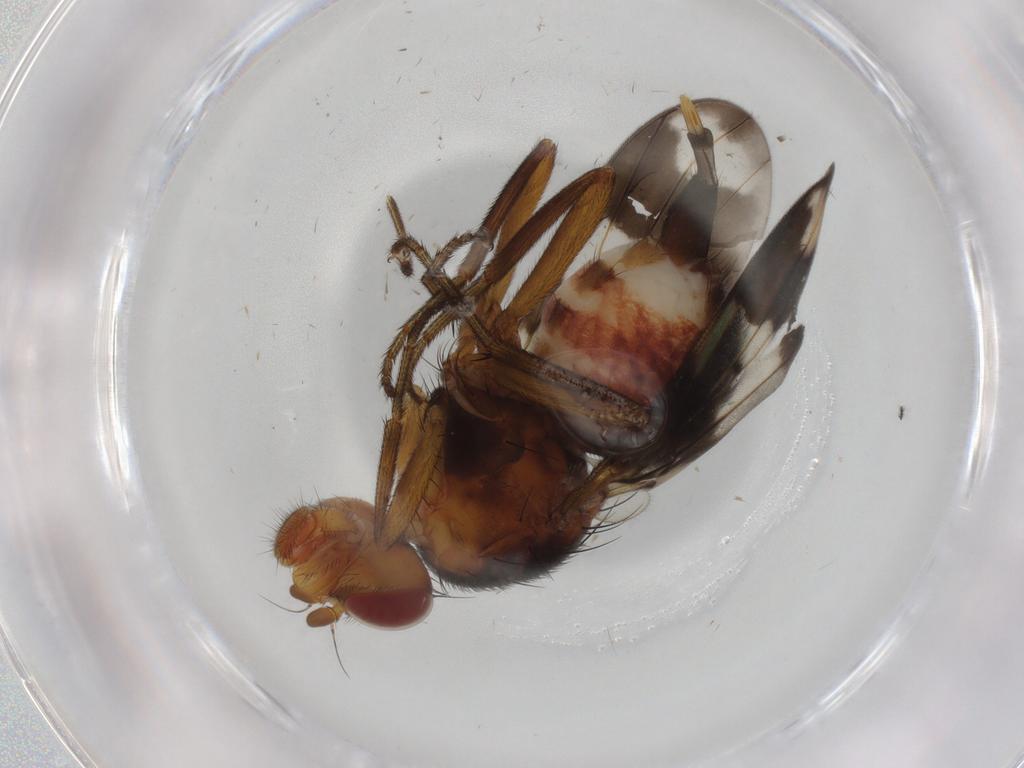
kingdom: Animalia
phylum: Arthropoda
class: Insecta
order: Diptera
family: Richardiidae
